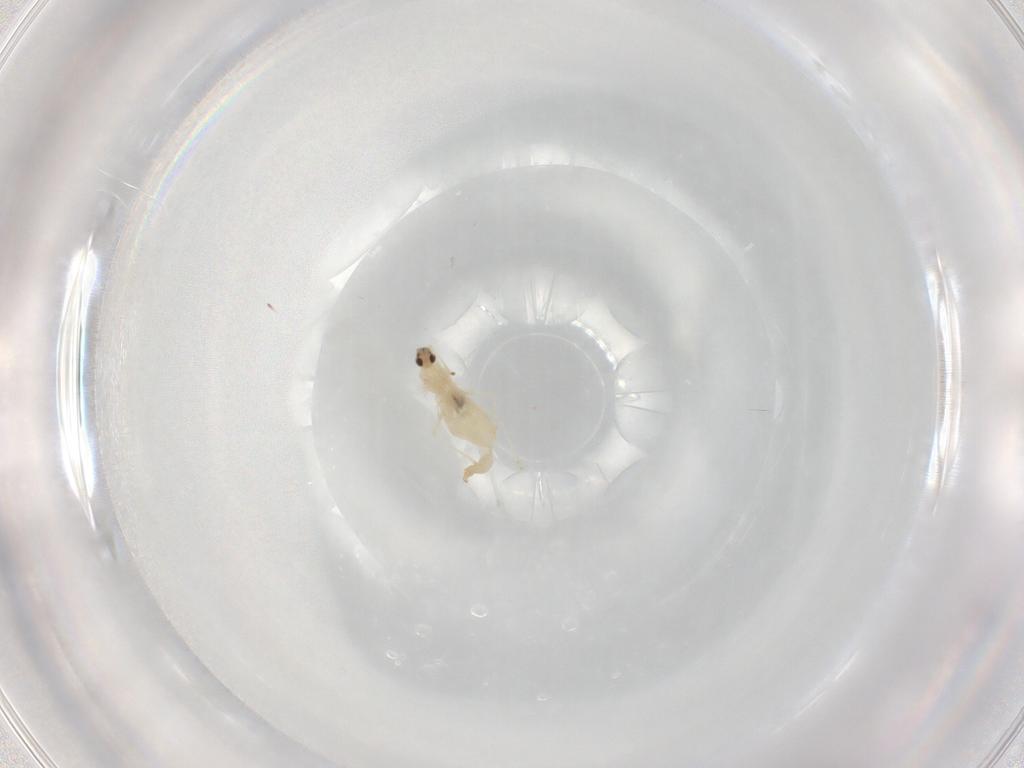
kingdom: Animalia
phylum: Arthropoda
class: Insecta
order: Diptera
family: Cecidomyiidae
